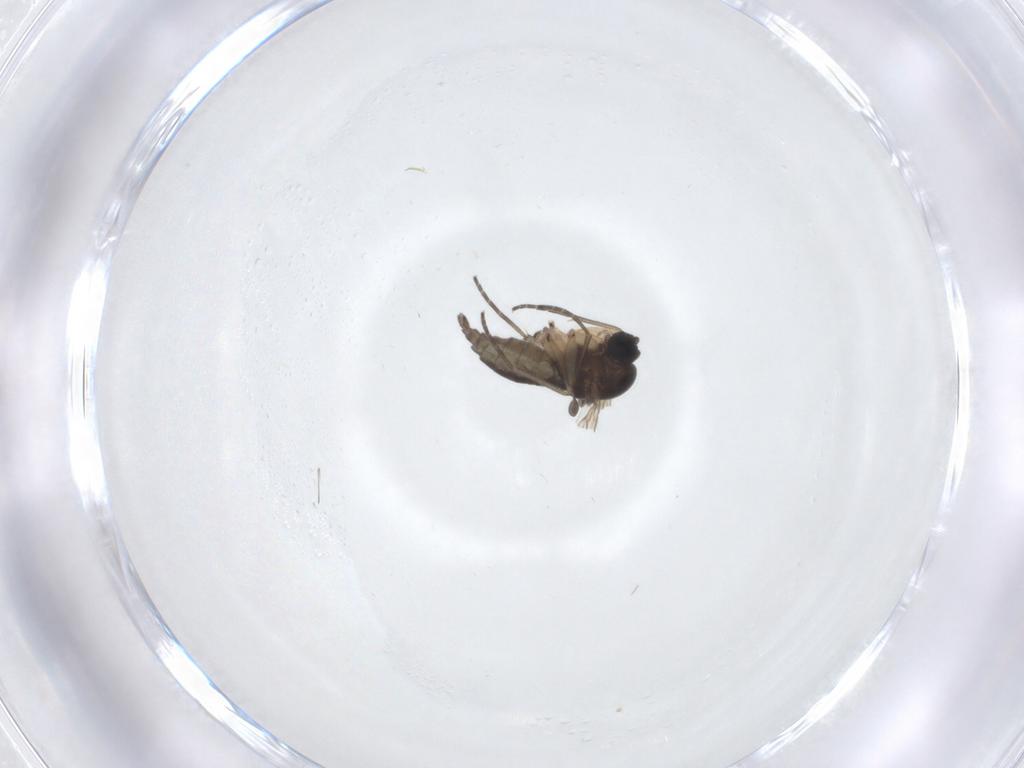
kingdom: Animalia
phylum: Arthropoda
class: Insecta
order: Diptera
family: Sciaridae
